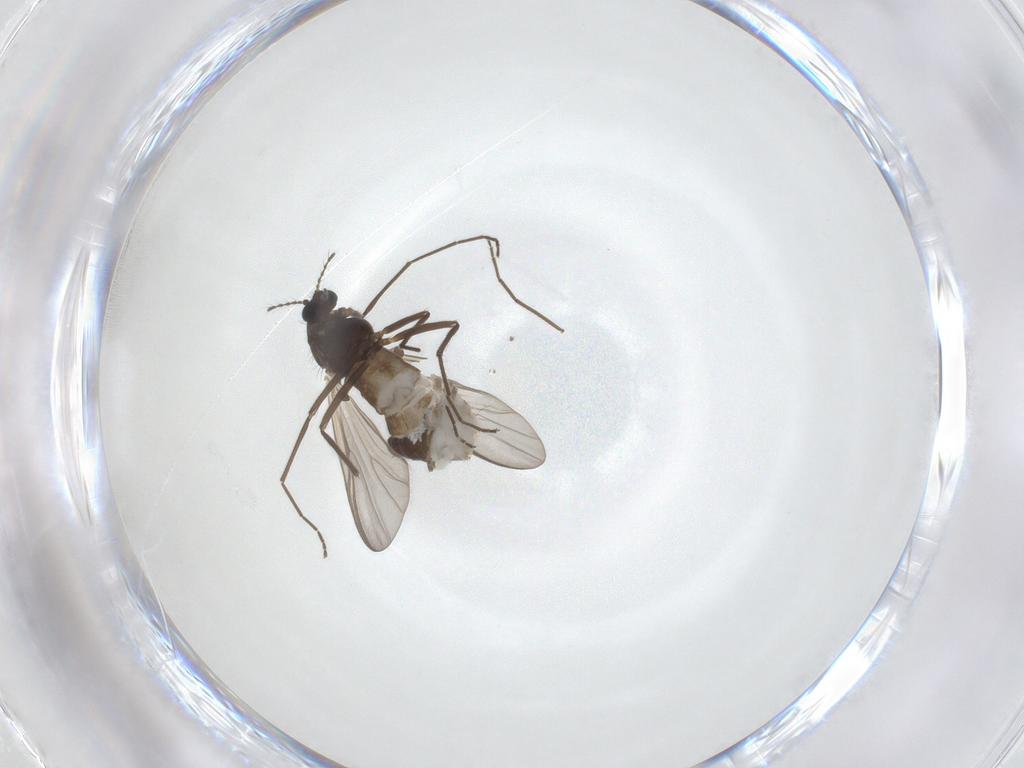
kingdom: Animalia
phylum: Arthropoda
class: Insecta
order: Diptera
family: Chironomidae
